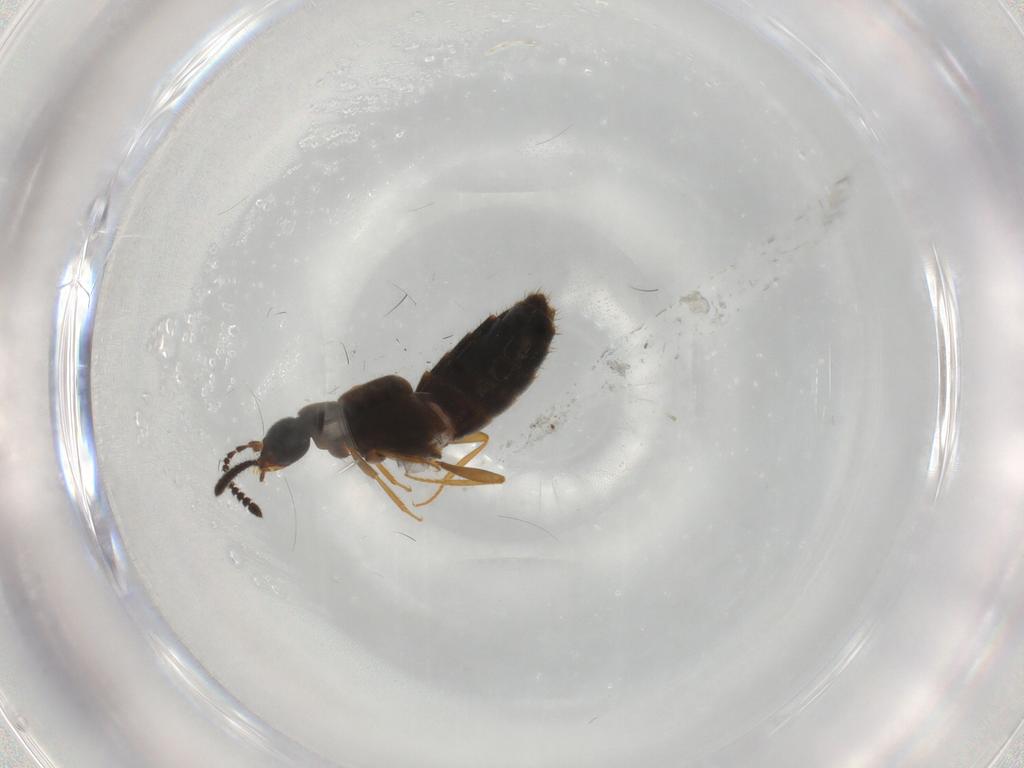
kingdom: Animalia
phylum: Arthropoda
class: Insecta
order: Coleoptera
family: Staphylinidae
